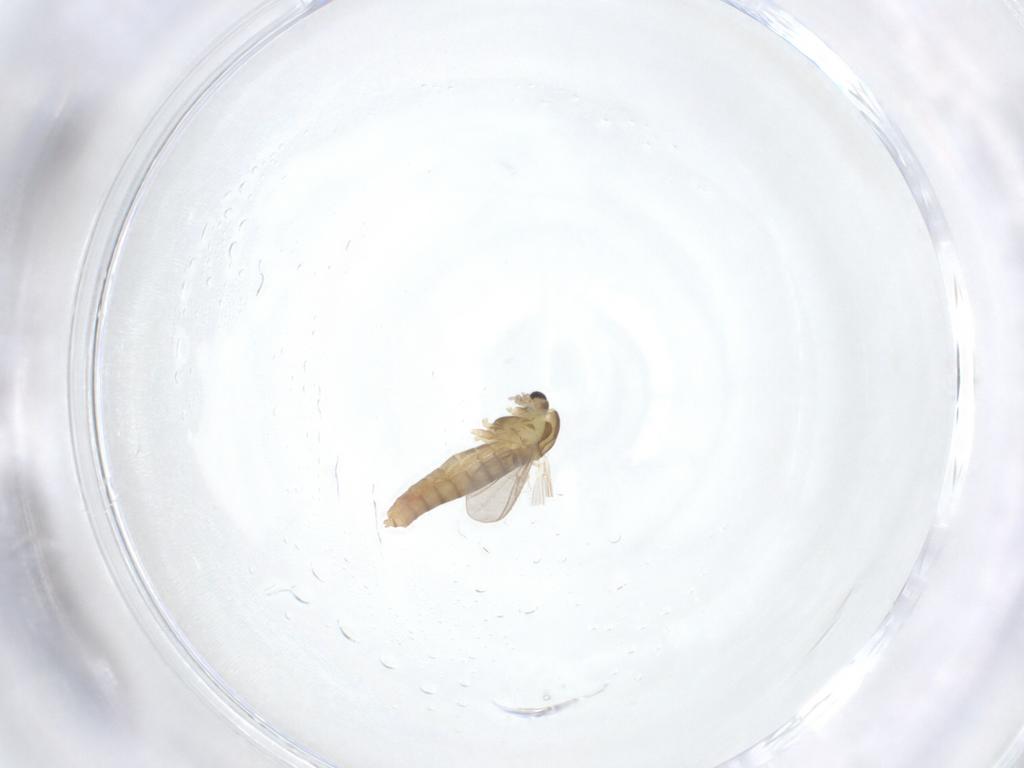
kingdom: Animalia
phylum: Arthropoda
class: Insecta
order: Diptera
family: Chironomidae
